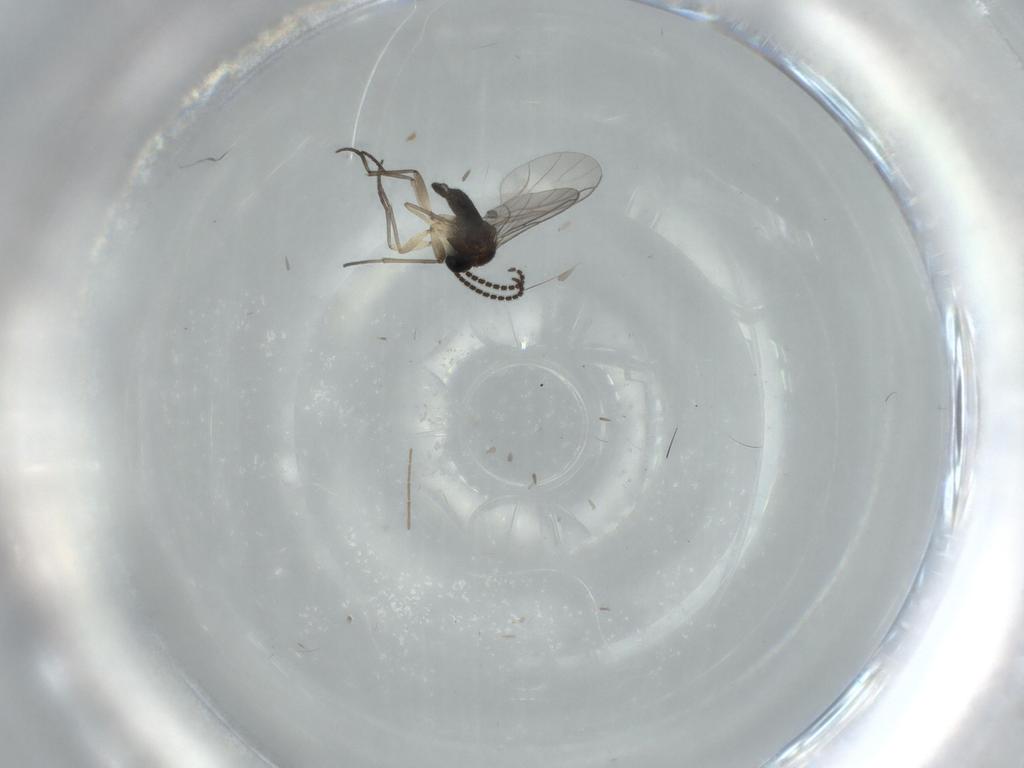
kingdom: Animalia
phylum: Arthropoda
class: Insecta
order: Diptera
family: Sciaridae
